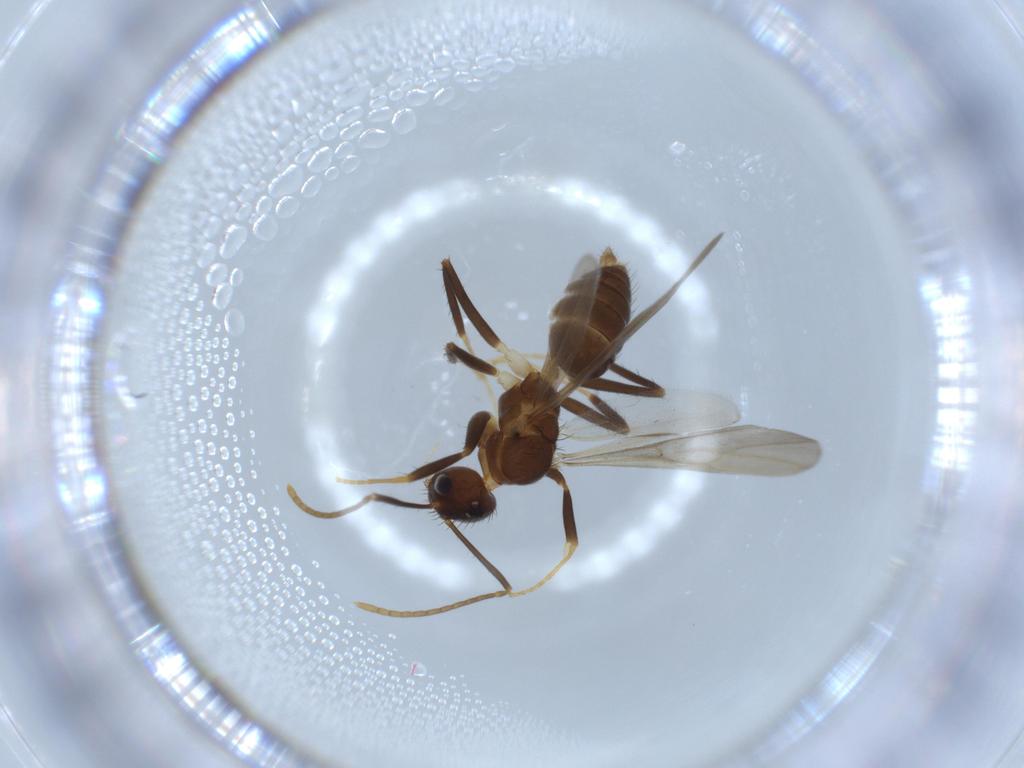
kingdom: Animalia
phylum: Arthropoda
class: Insecta
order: Hymenoptera
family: Formicidae
